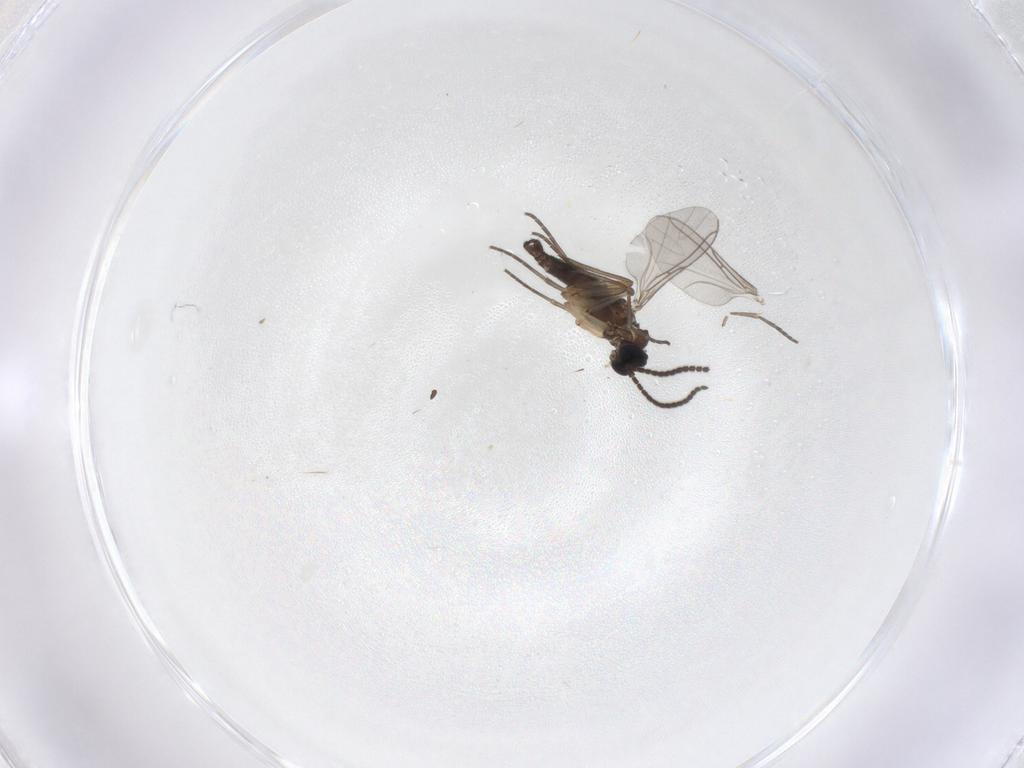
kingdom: Animalia
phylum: Arthropoda
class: Insecta
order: Diptera
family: Sciaridae
